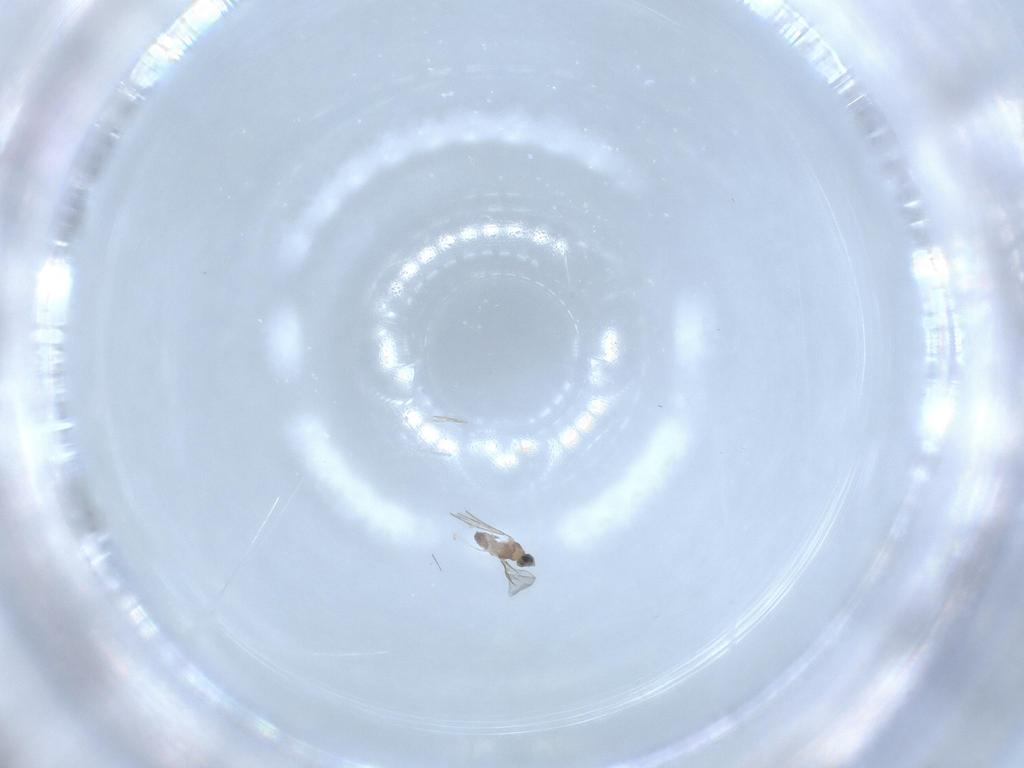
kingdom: Animalia
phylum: Arthropoda
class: Insecta
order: Diptera
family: Cecidomyiidae
